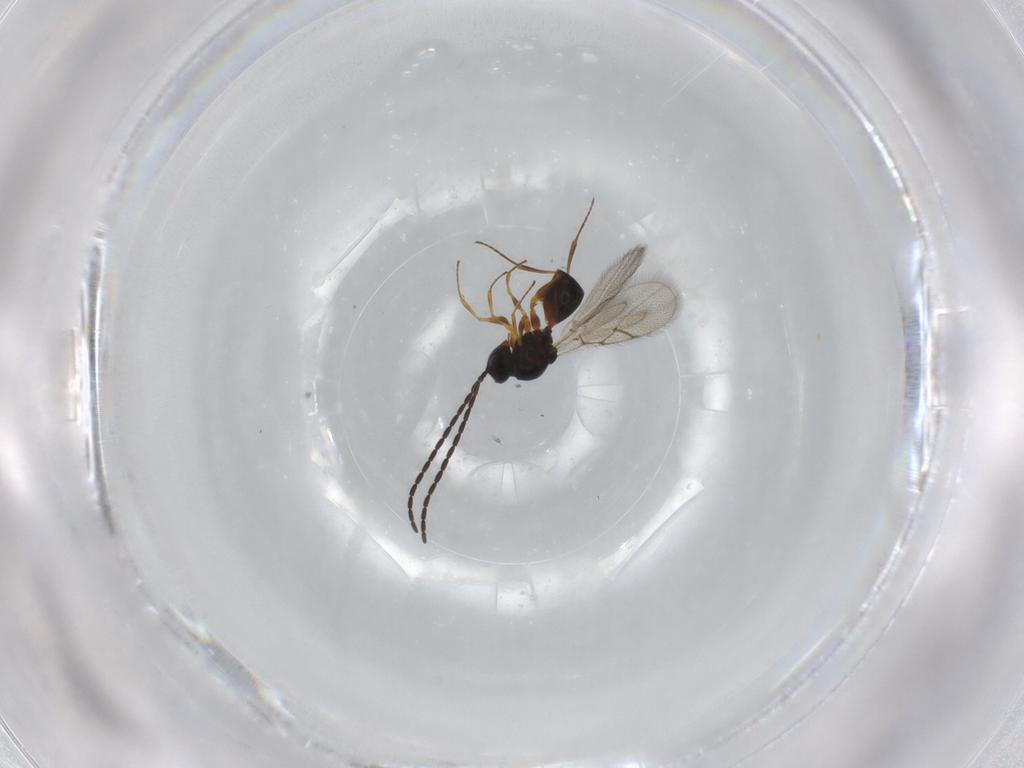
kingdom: Animalia
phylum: Arthropoda
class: Insecta
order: Hymenoptera
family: Figitidae
